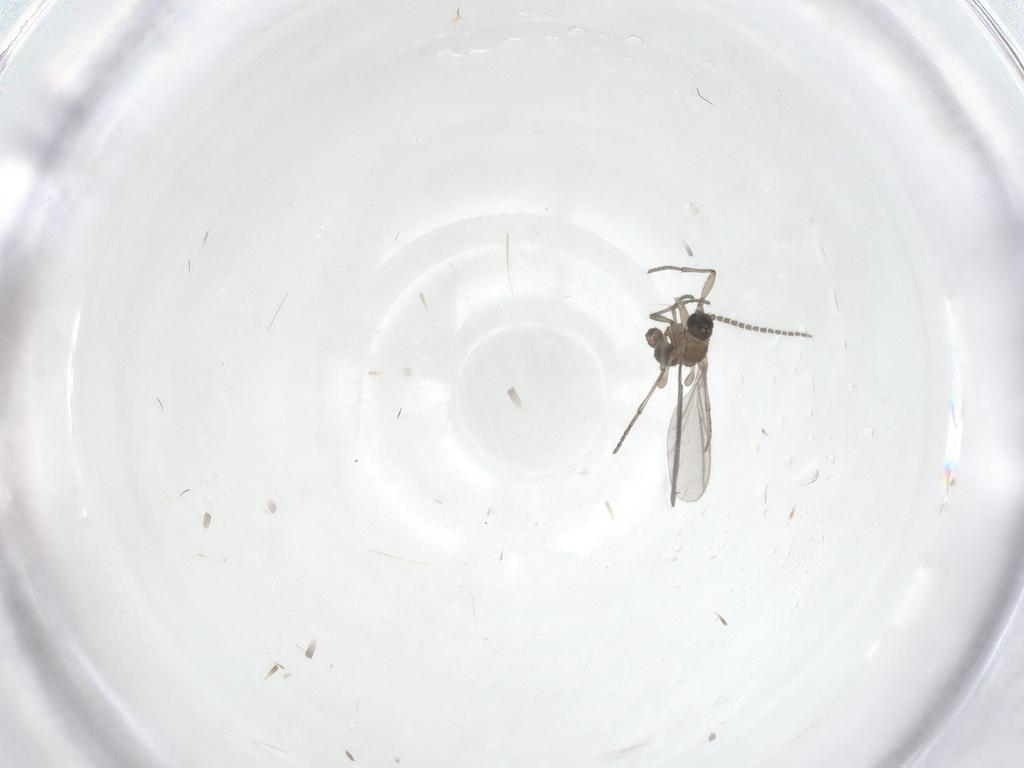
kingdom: Animalia
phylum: Arthropoda
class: Insecta
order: Diptera
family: Sciaridae
